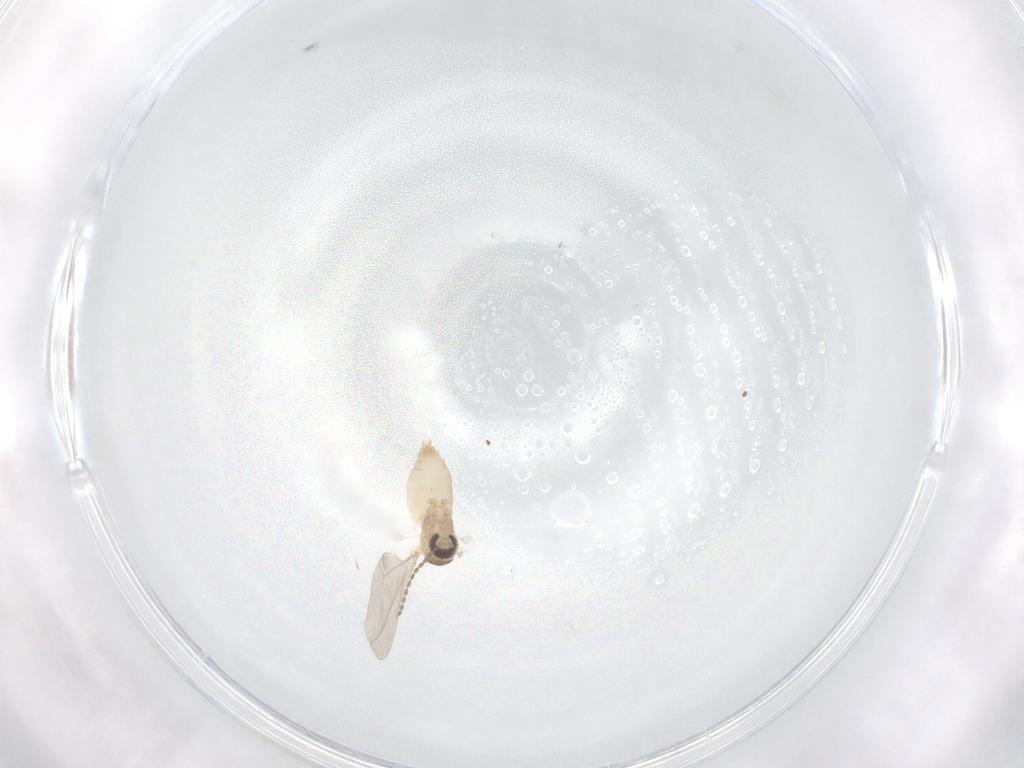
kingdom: Animalia
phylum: Arthropoda
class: Insecta
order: Diptera
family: Cecidomyiidae
